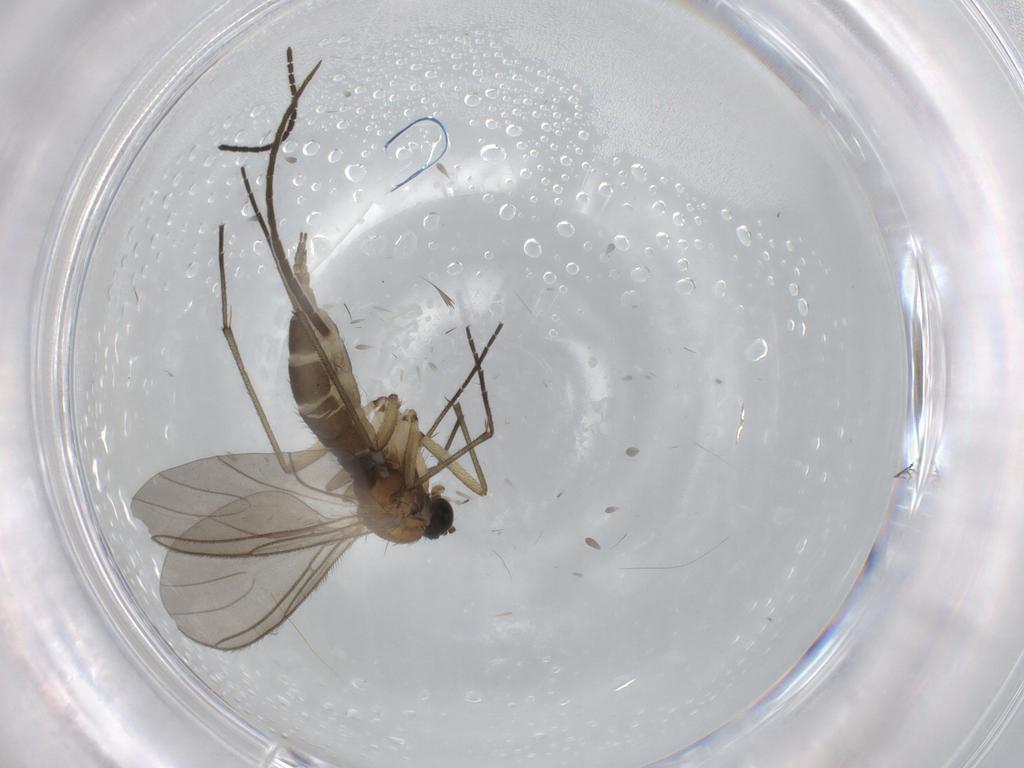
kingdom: Animalia
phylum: Arthropoda
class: Insecta
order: Diptera
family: Sciaridae
